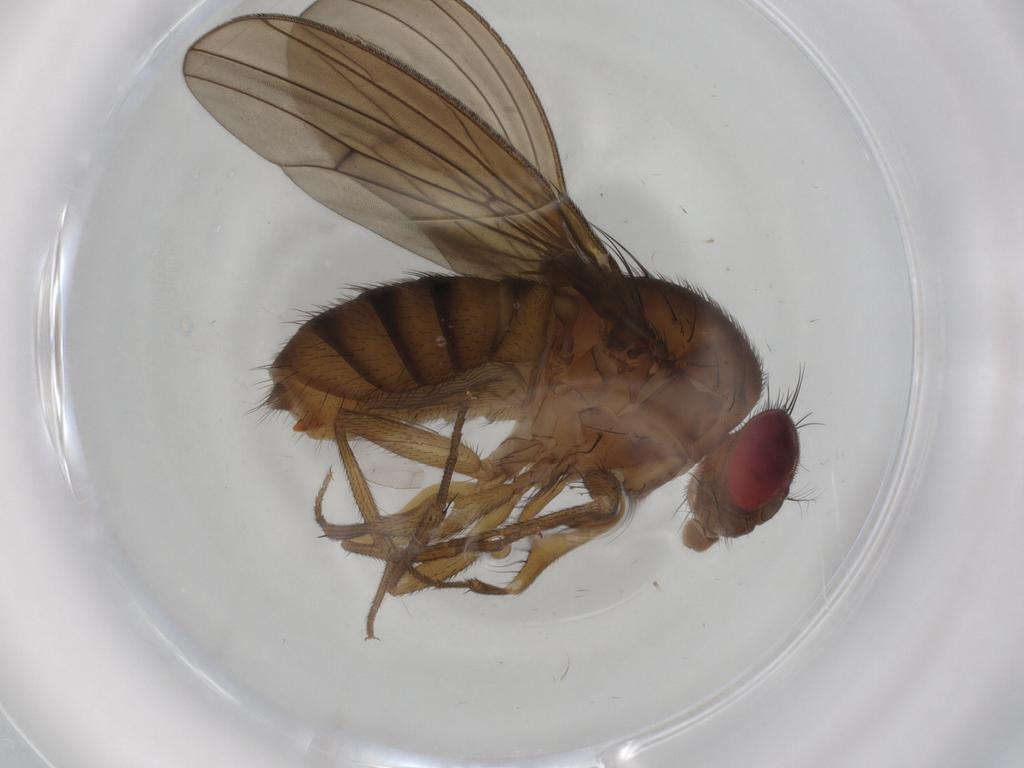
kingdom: Animalia
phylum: Arthropoda
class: Insecta
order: Diptera
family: Drosophilidae
